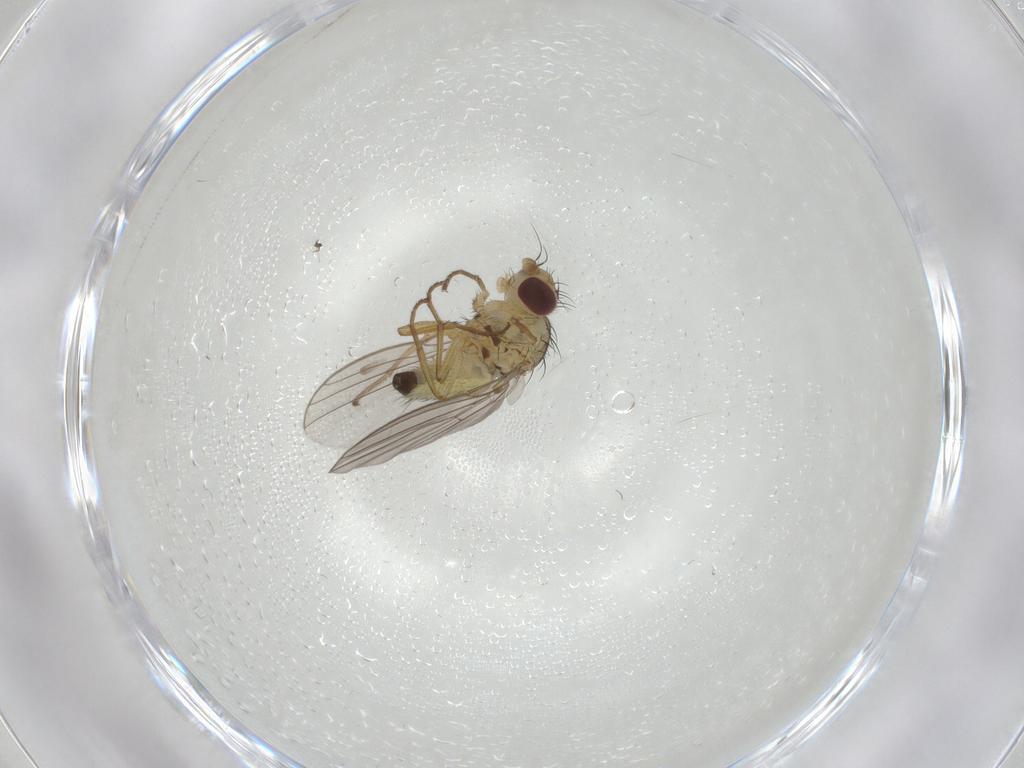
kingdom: Animalia
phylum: Arthropoda
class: Insecta
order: Diptera
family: Agromyzidae
